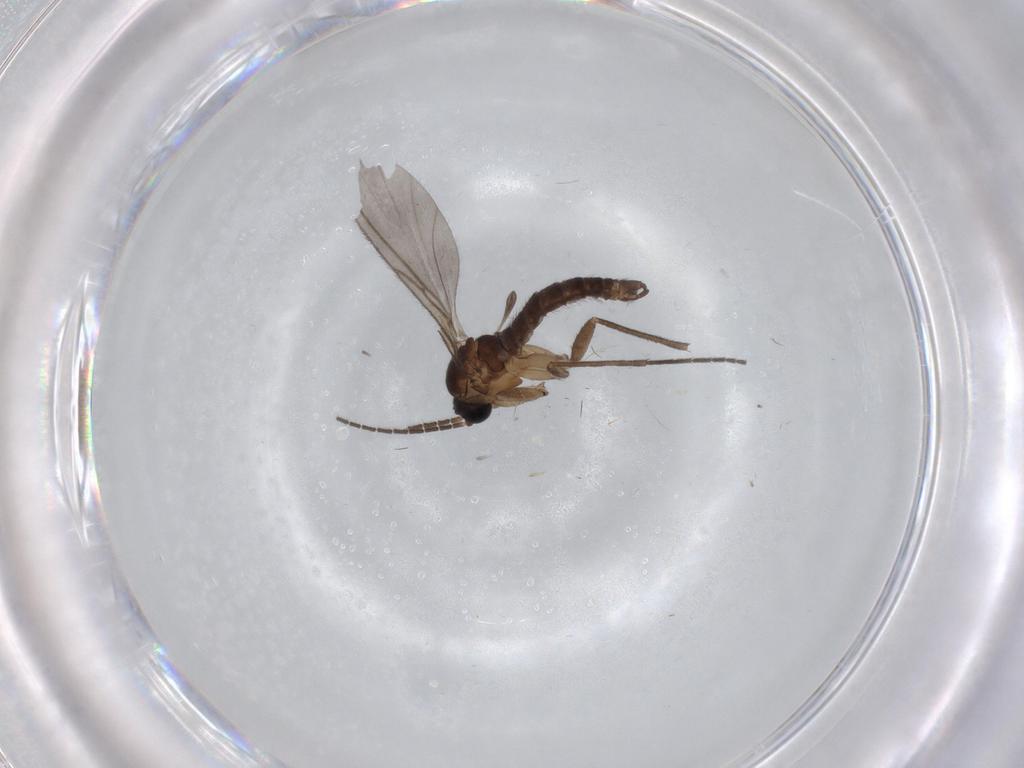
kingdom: Animalia
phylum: Arthropoda
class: Insecta
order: Diptera
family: Sciaridae
